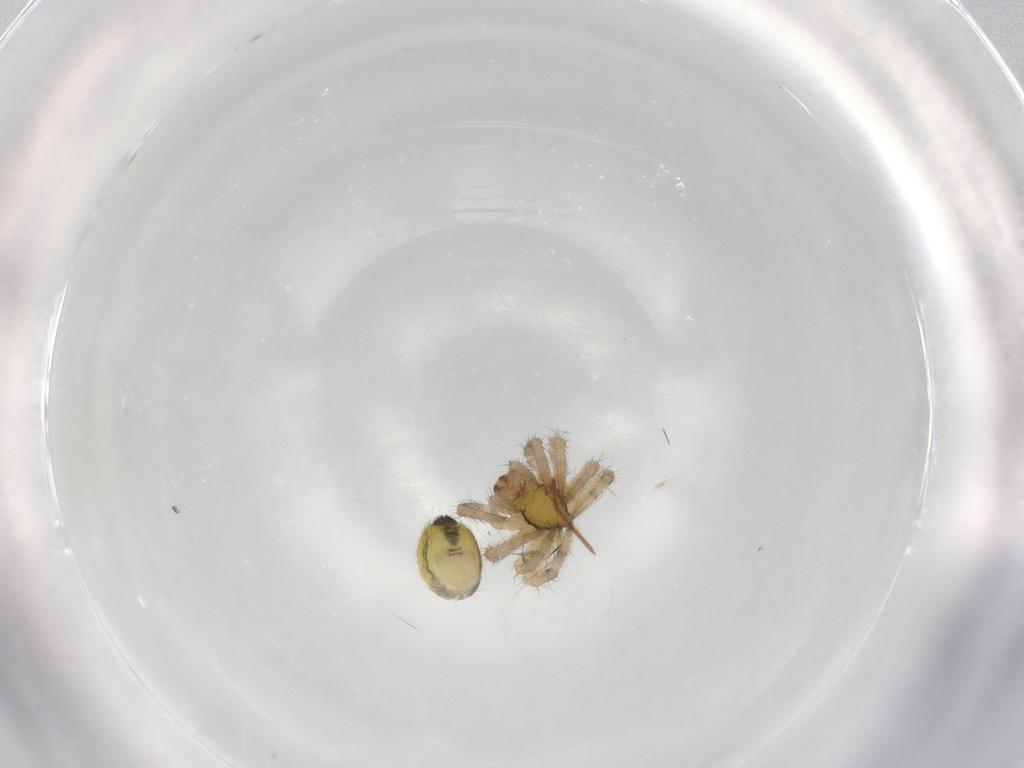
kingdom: Animalia
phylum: Arthropoda
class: Arachnida
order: Araneae
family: Araneidae
